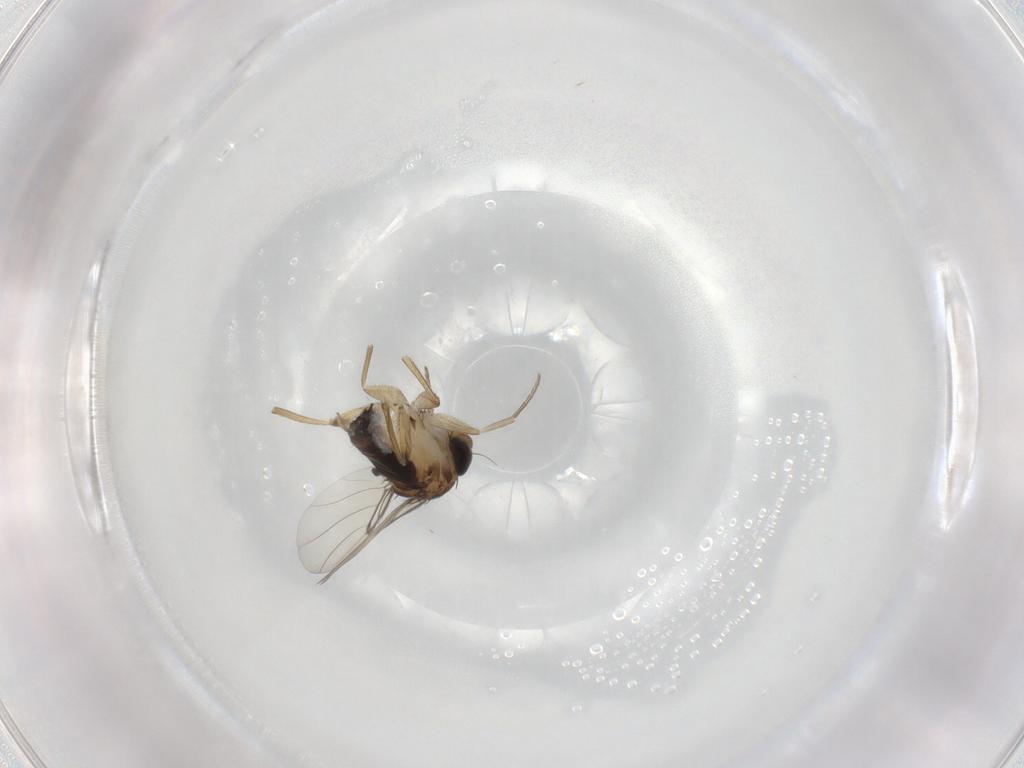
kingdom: Animalia
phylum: Arthropoda
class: Insecta
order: Diptera
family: Phoridae
